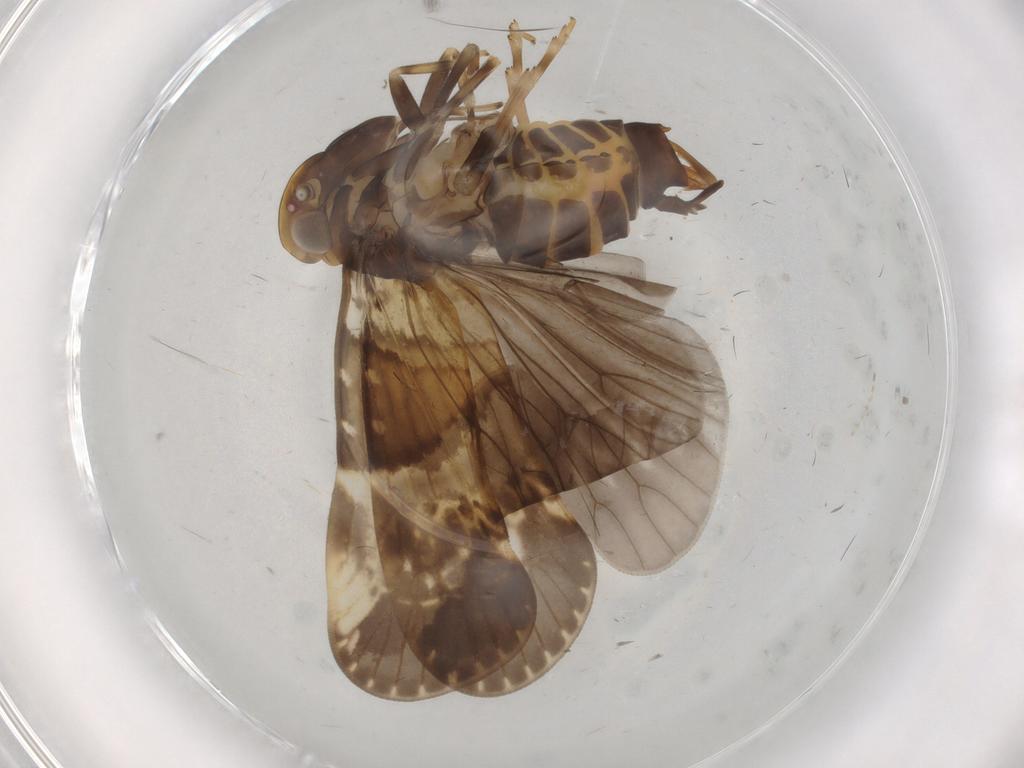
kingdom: Animalia
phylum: Arthropoda
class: Insecta
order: Hemiptera
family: Cixiidae
